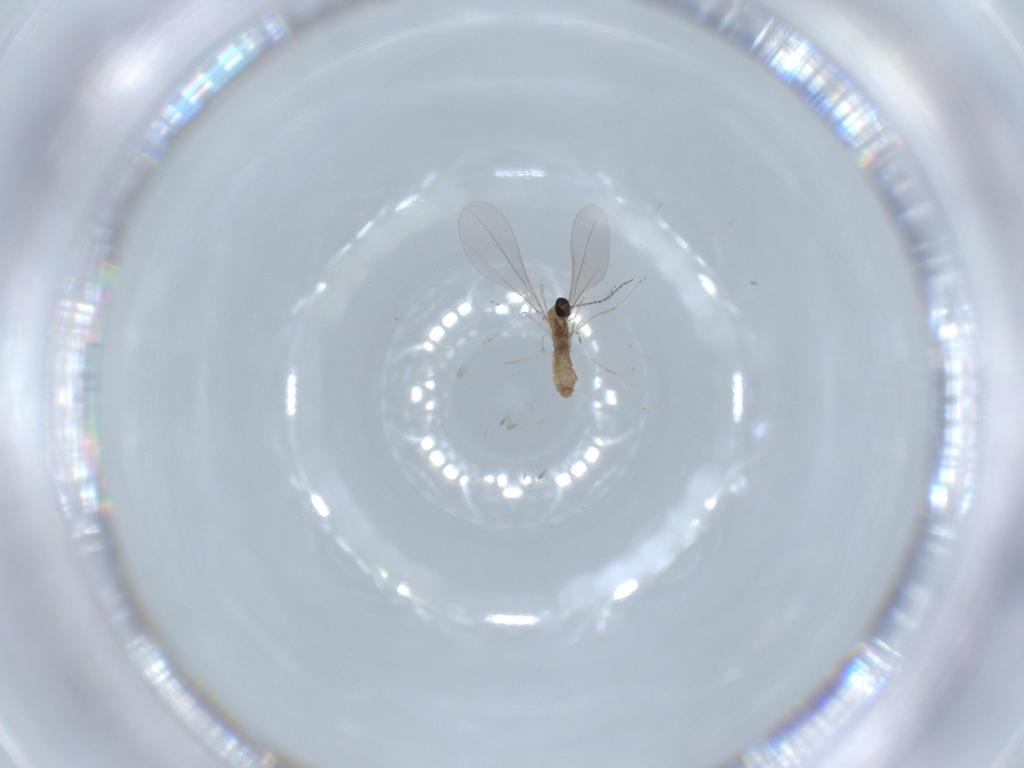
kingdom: Animalia
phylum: Arthropoda
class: Insecta
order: Diptera
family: Cecidomyiidae
